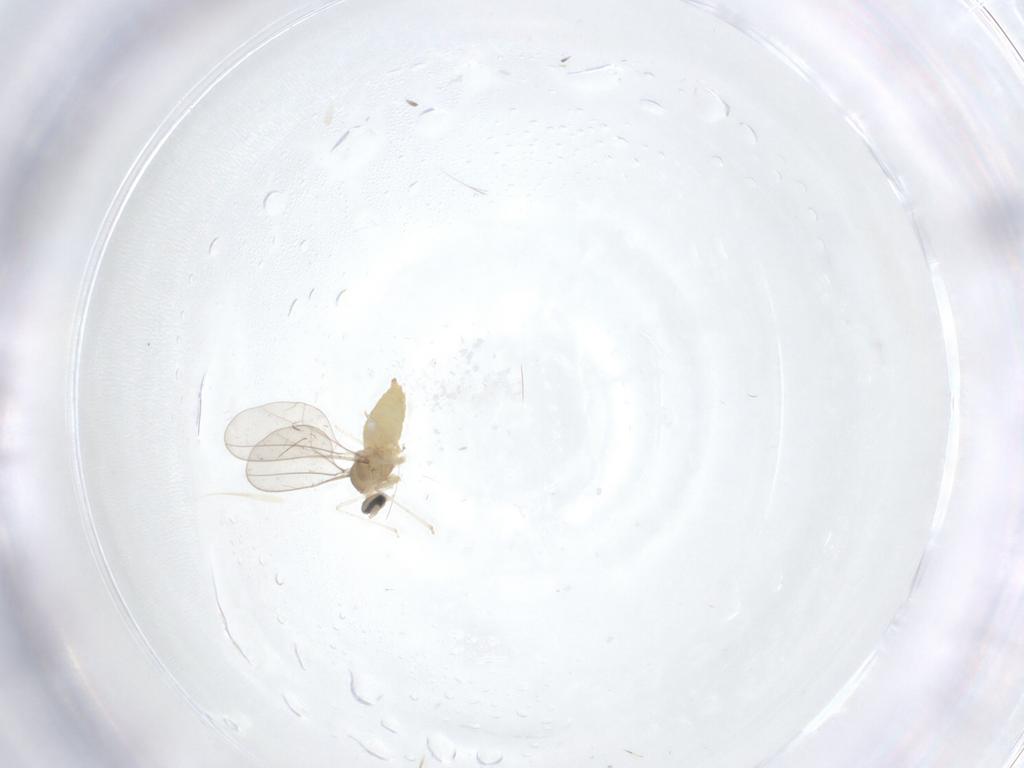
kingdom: Animalia
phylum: Arthropoda
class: Insecta
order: Diptera
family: Cecidomyiidae
